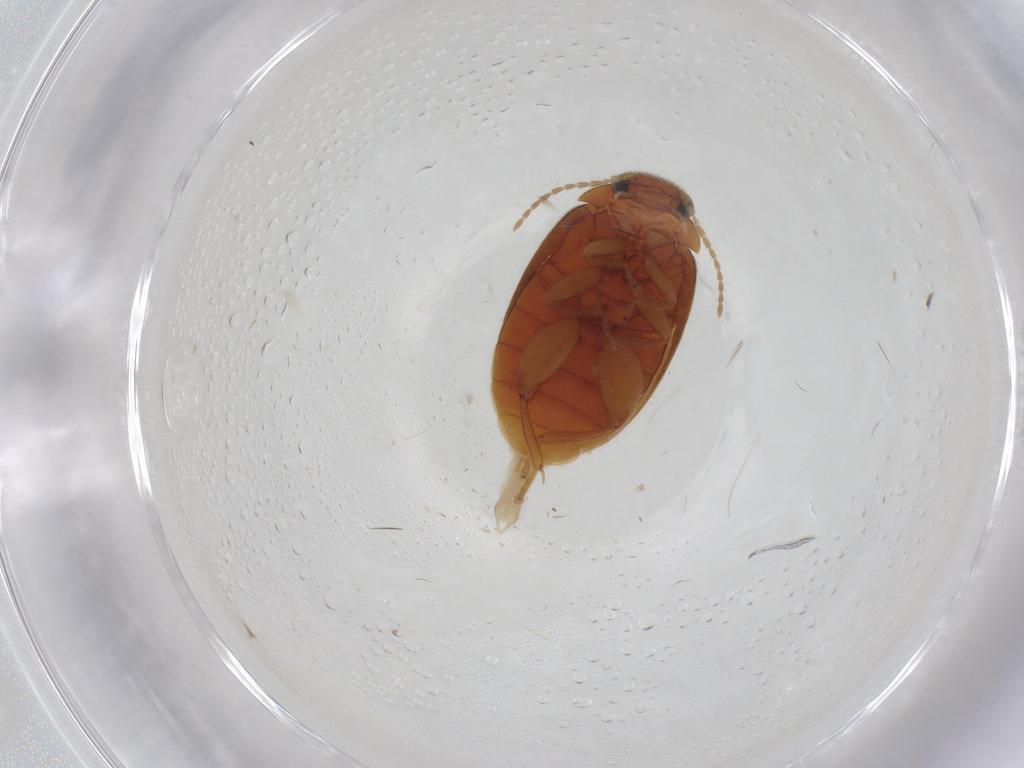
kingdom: Animalia
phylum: Arthropoda
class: Insecta
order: Coleoptera
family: Scirtidae
